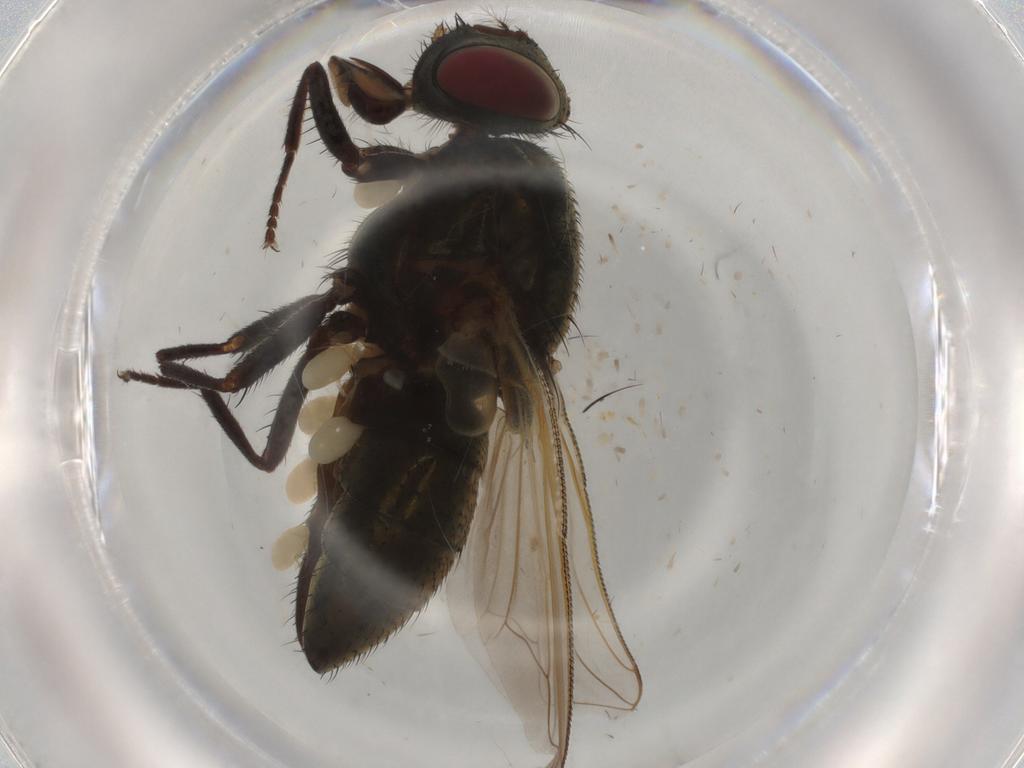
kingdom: Animalia
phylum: Arthropoda
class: Insecta
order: Diptera
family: Muscidae
